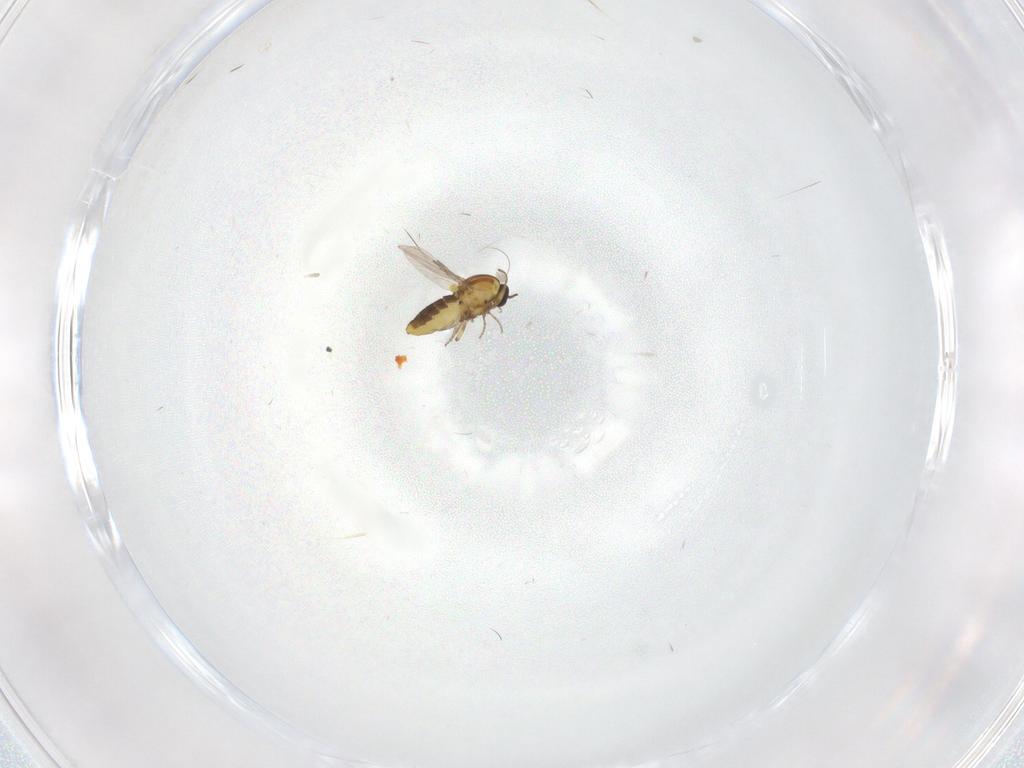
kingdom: Animalia
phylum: Arthropoda
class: Insecta
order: Diptera
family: Ceratopogonidae
